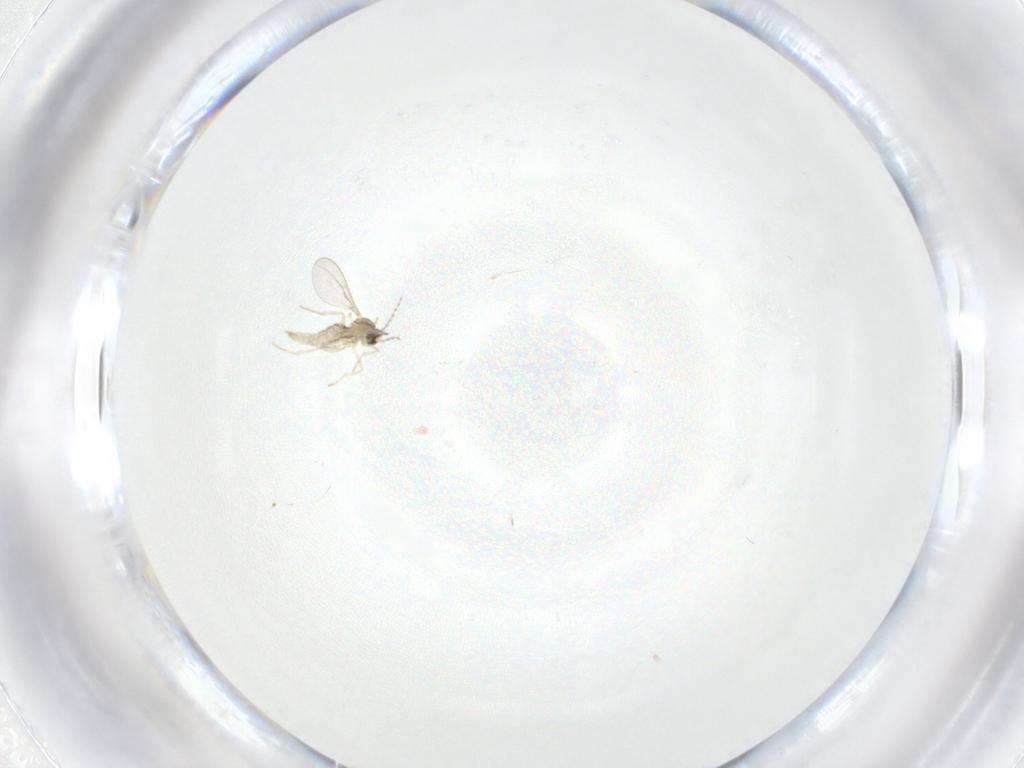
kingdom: Animalia
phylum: Arthropoda
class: Insecta
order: Diptera
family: Cecidomyiidae
